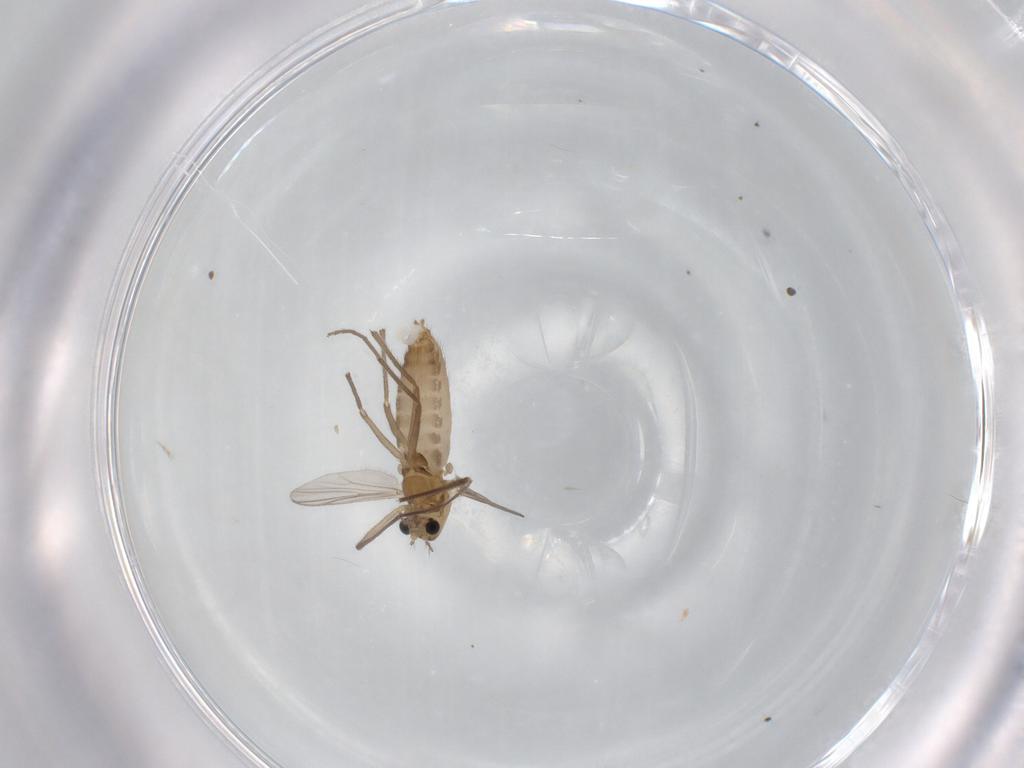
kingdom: Animalia
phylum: Arthropoda
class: Insecta
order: Diptera
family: Chironomidae
